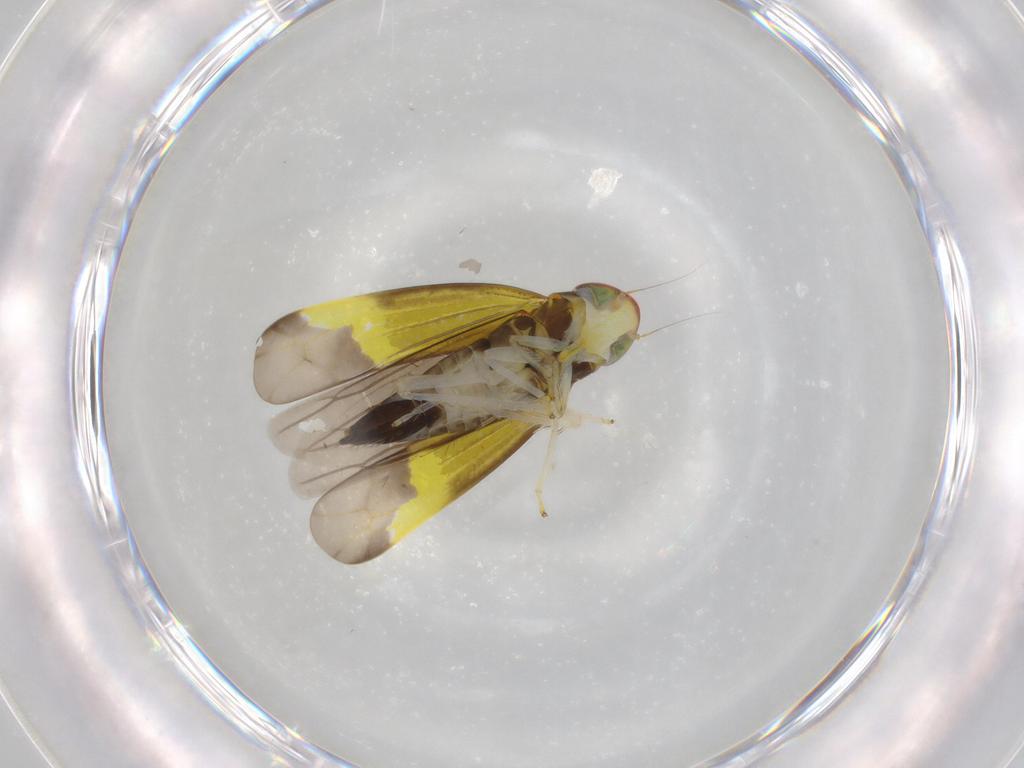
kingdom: Animalia
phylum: Arthropoda
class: Insecta
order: Hemiptera
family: Cicadellidae
